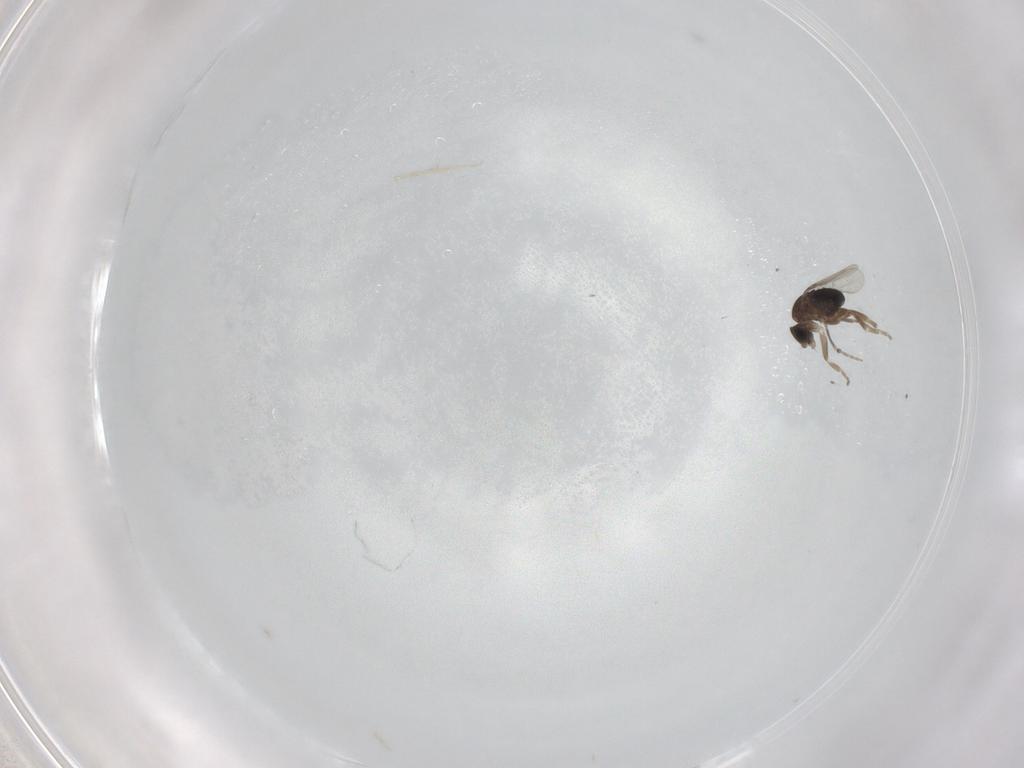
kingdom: Animalia
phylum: Arthropoda
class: Insecta
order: Diptera
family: Phoridae
